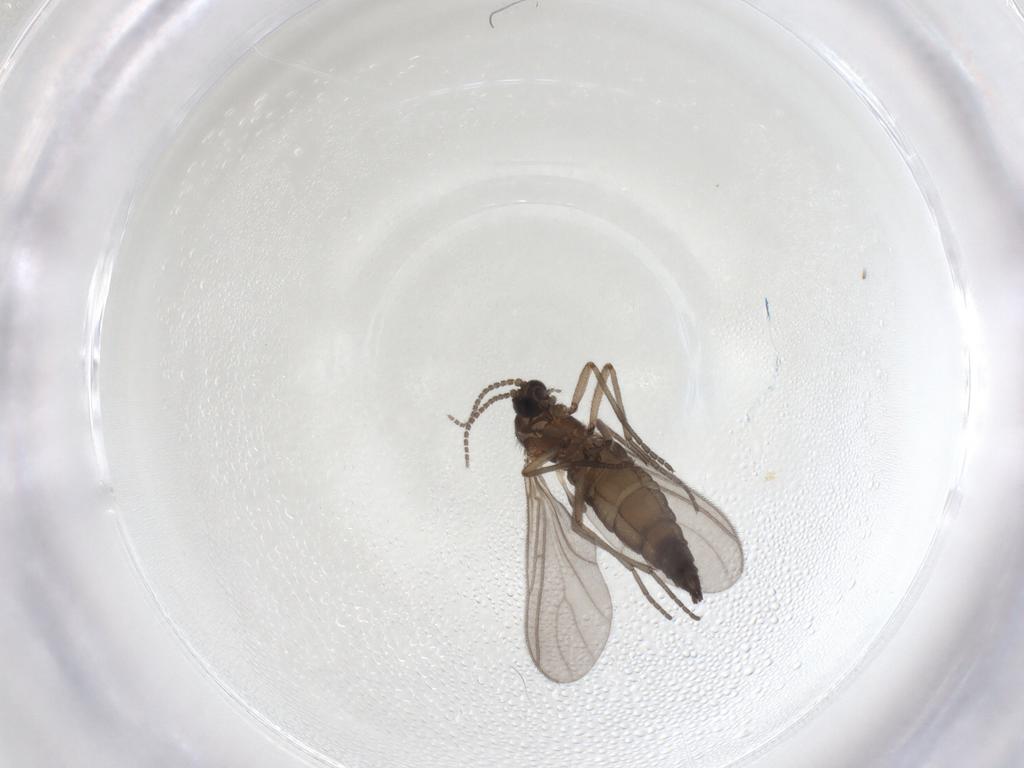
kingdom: Animalia
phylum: Arthropoda
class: Insecta
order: Diptera
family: Sciaridae
